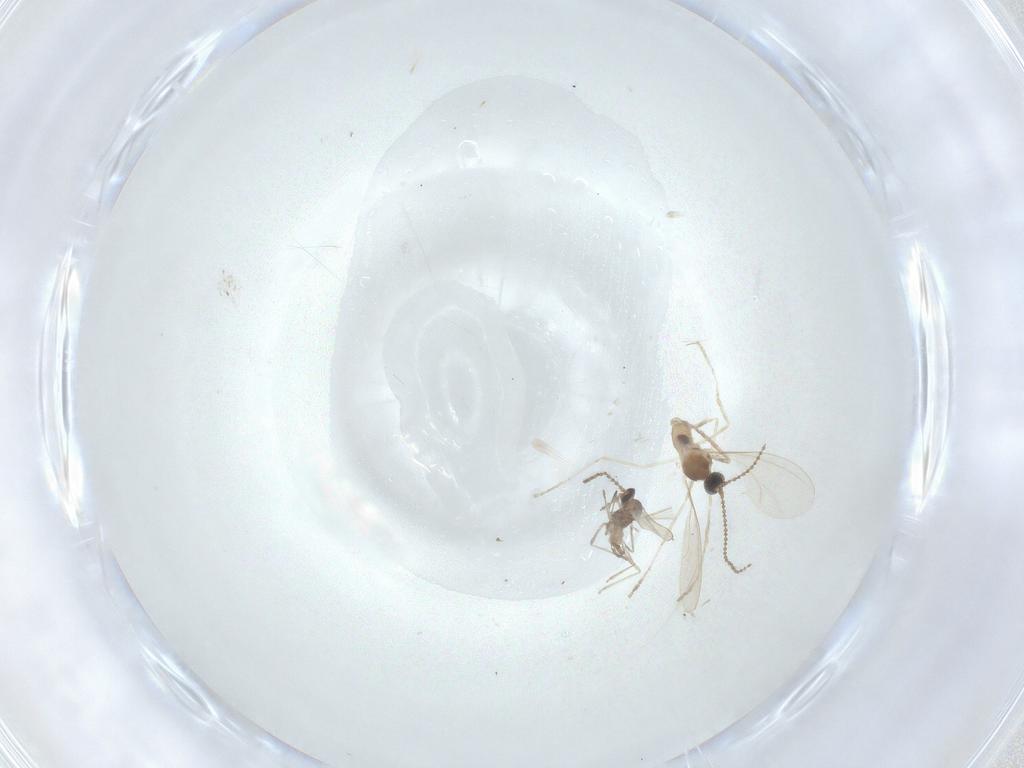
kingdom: Animalia
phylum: Arthropoda
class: Insecta
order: Diptera
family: Cecidomyiidae
